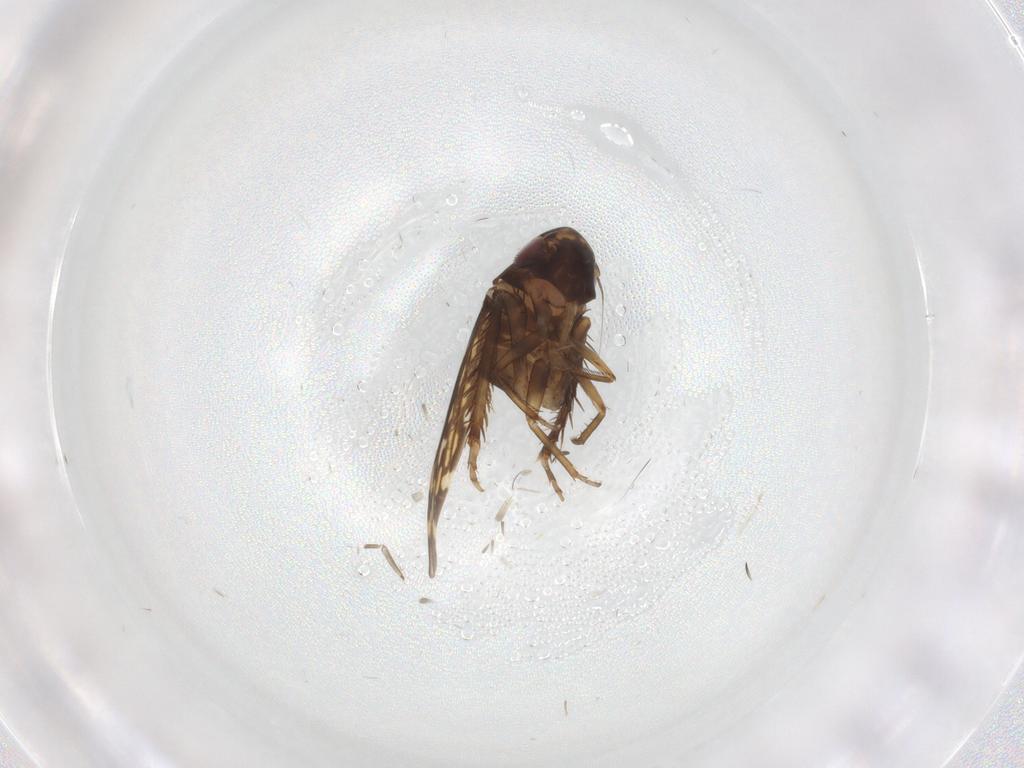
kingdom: Animalia
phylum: Arthropoda
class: Insecta
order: Hemiptera
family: Cicadellidae
